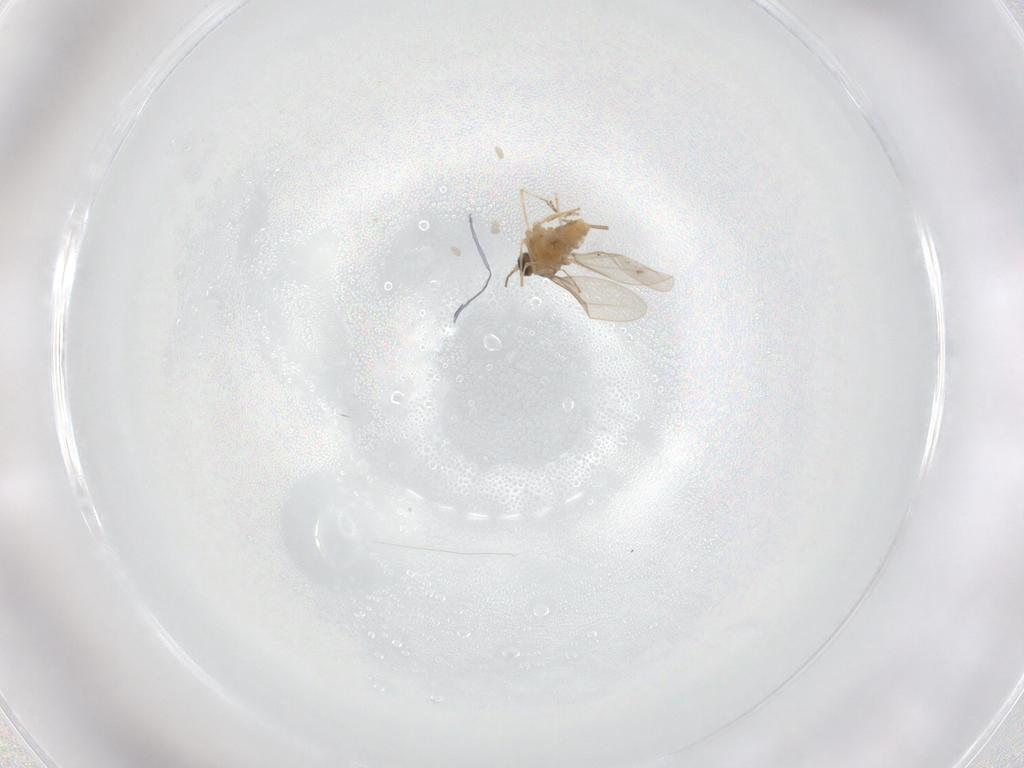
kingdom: Animalia
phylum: Arthropoda
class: Insecta
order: Diptera
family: Cecidomyiidae
